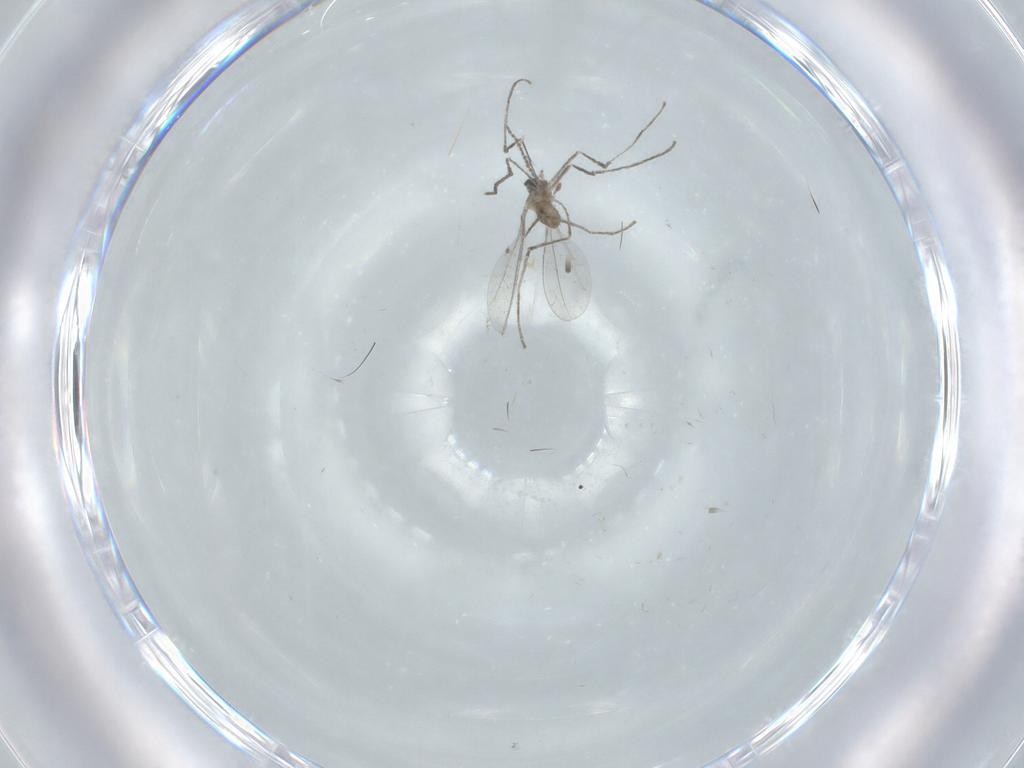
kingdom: Animalia
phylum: Arthropoda
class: Insecta
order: Diptera
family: Cecidomyiidae
